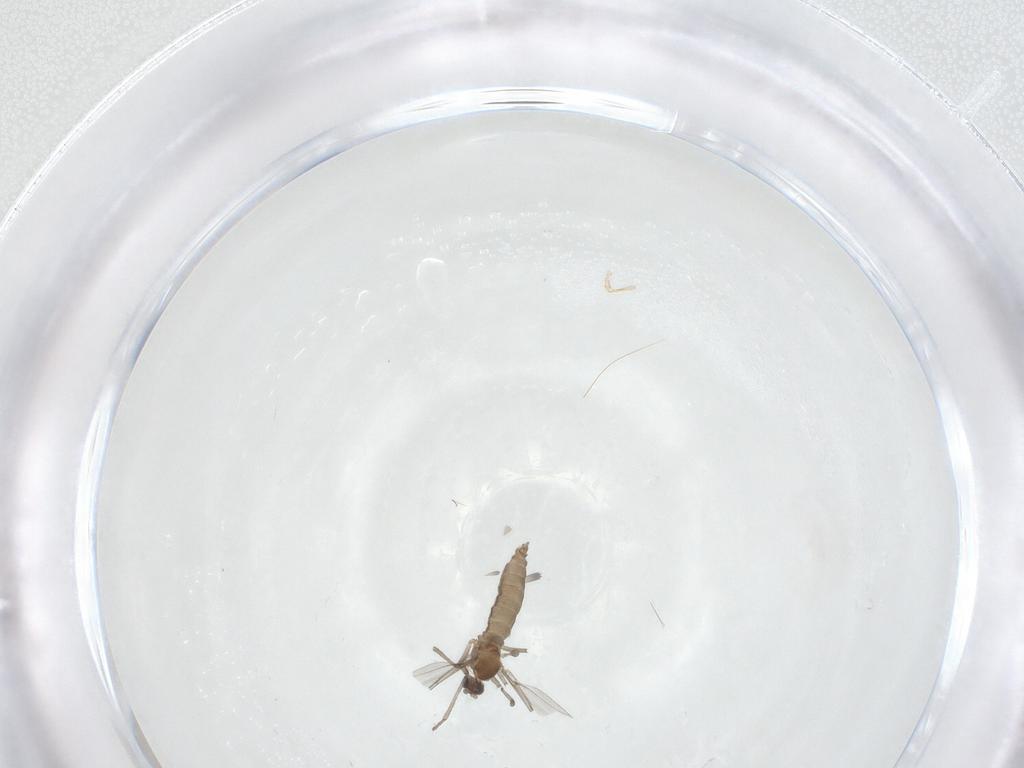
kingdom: Animalia
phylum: Arthropoda
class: Insecta
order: Diptera
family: Cecidomyiidae
